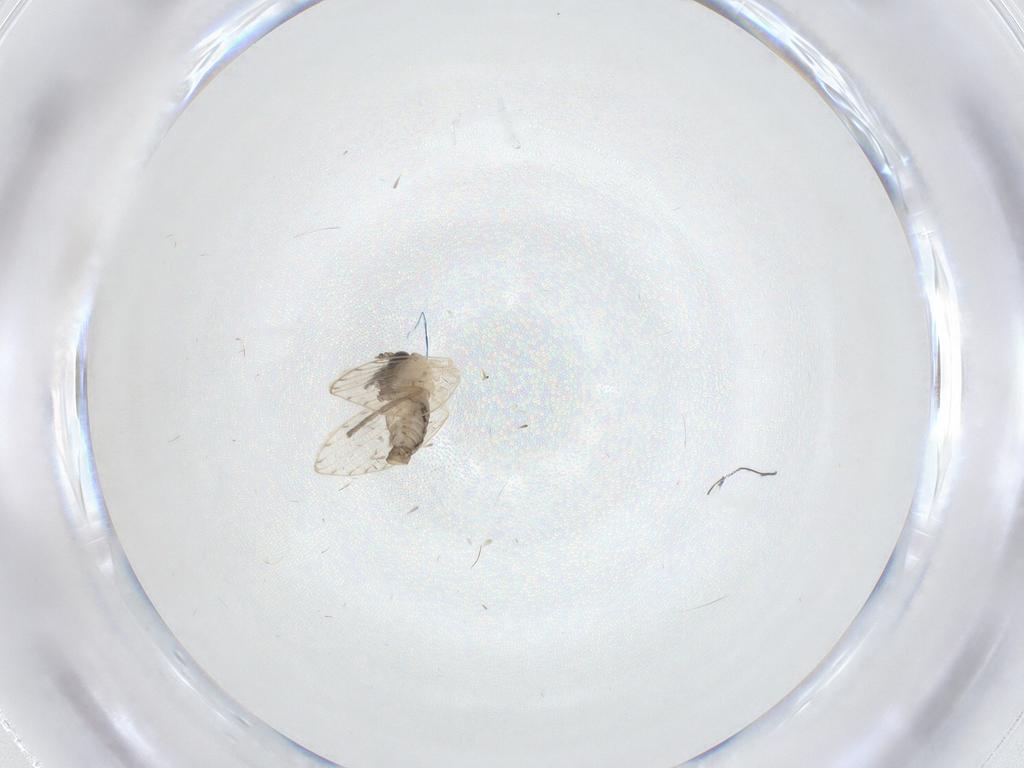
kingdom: Animalia
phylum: Arthropoda
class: Insecta
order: Diptera
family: Psychodidae
